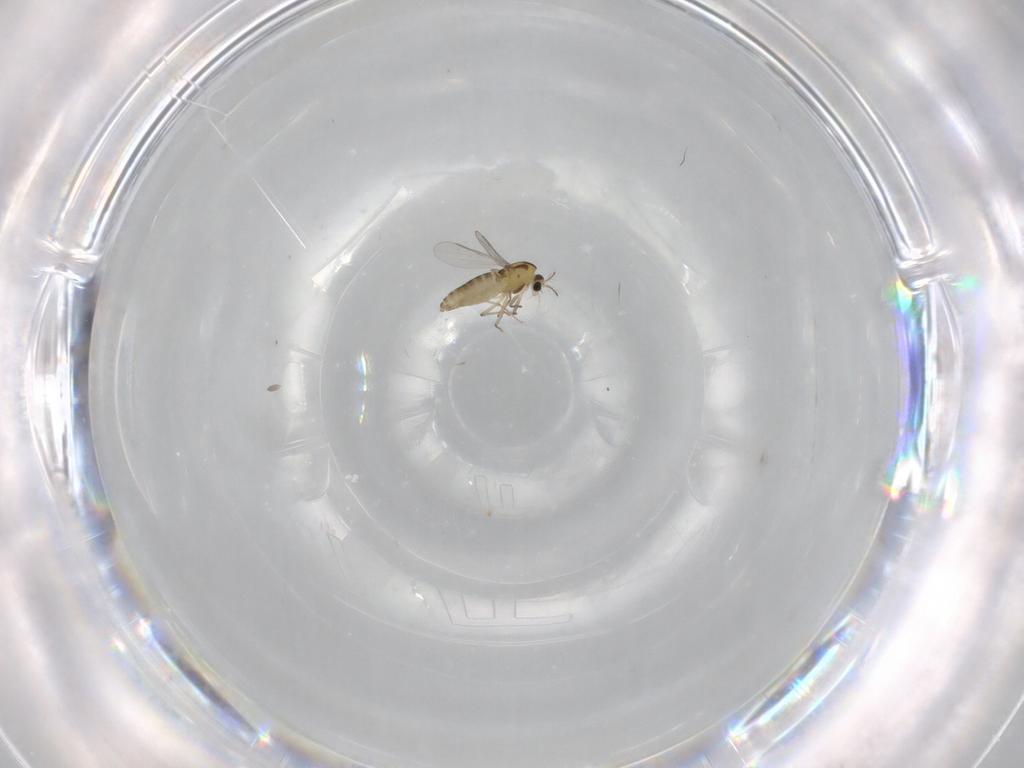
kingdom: Animalia
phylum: Arthropoda
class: Insecta
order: Diptera
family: Chironomidae
